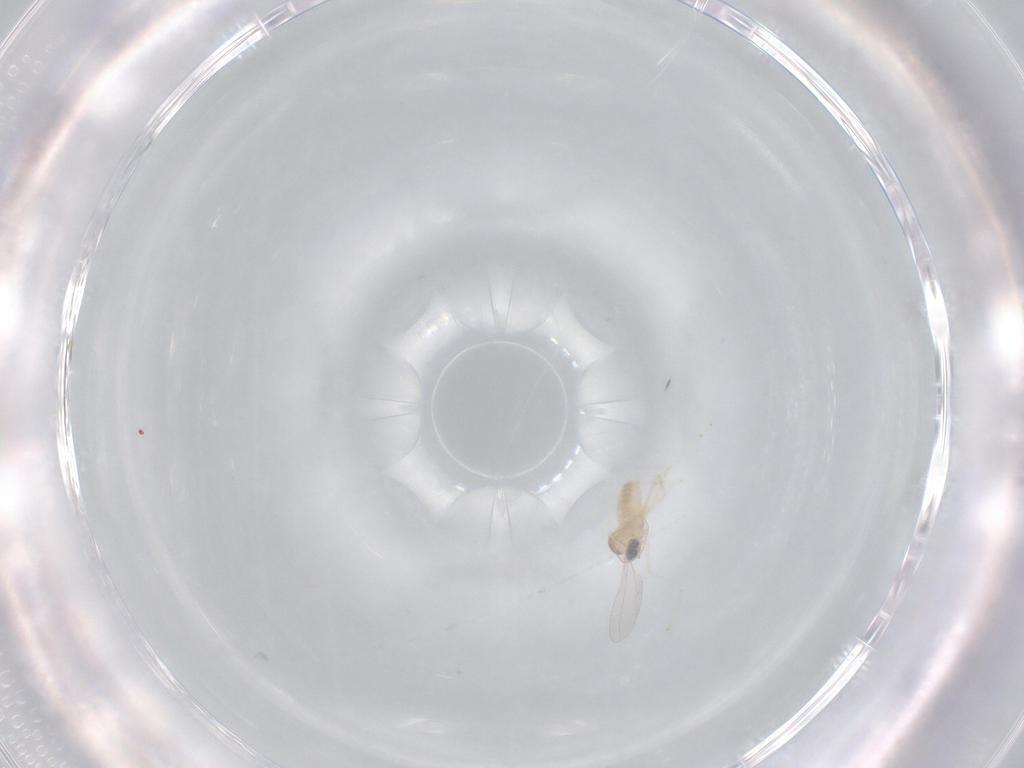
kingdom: Animalia
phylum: Arthropoda
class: Insecta
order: Diptera
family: Cecidomyiidae
